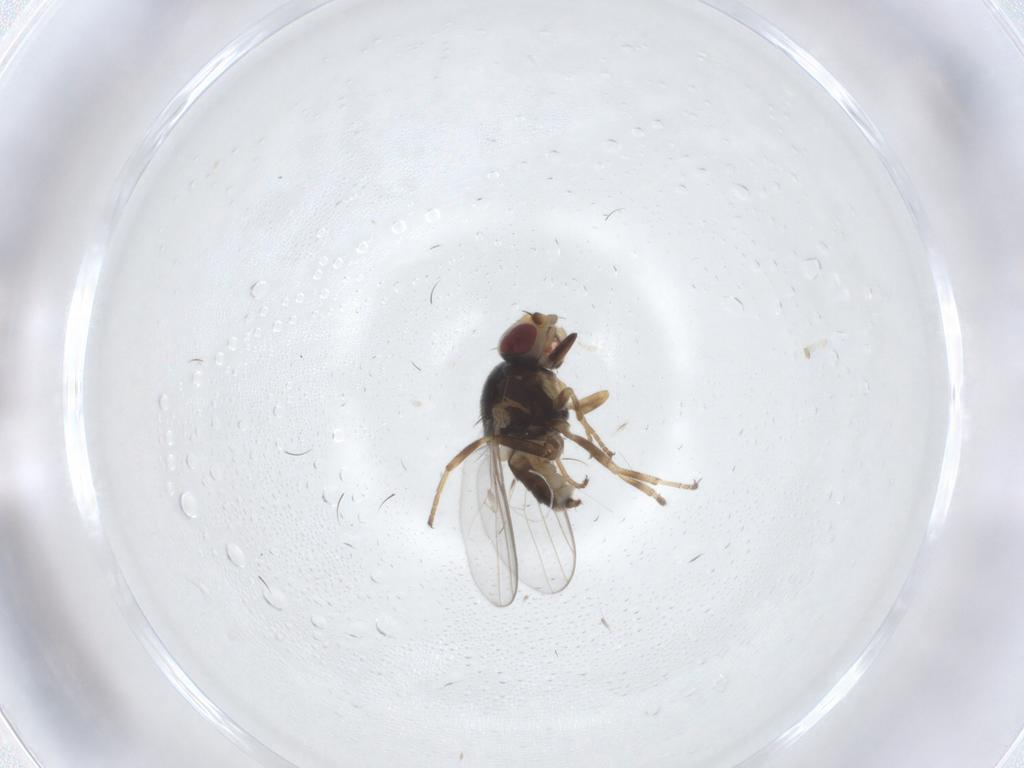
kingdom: Animalia
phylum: Arthropoda
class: Insecta
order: Diptera
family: Chloropidae
